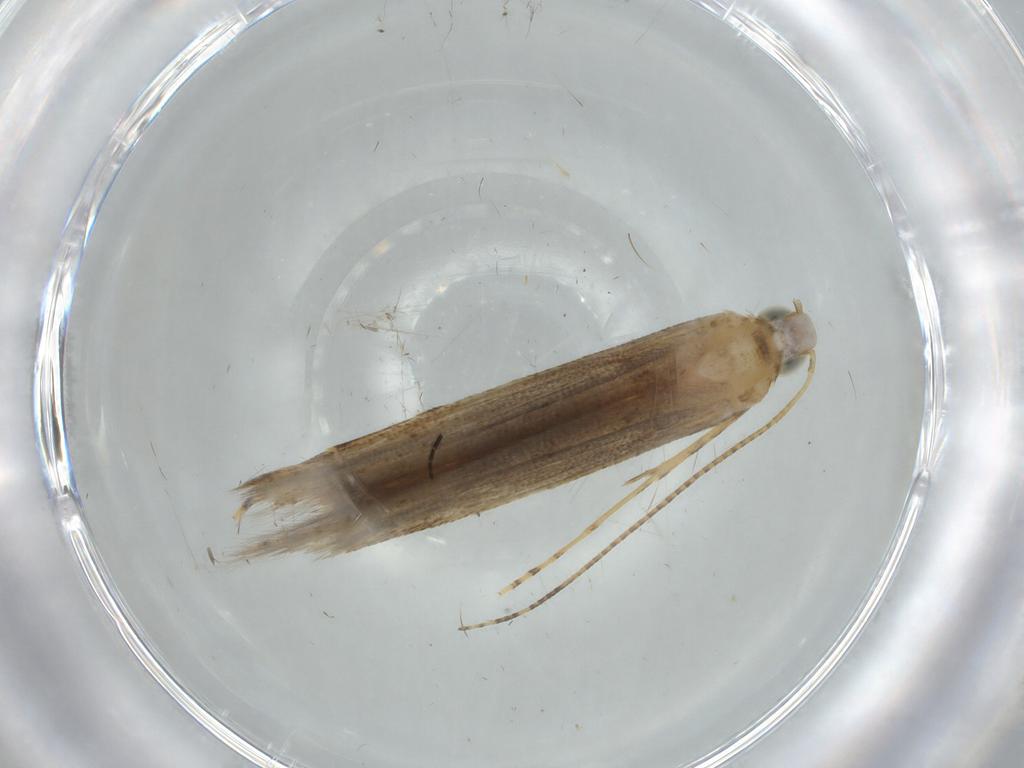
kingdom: Animalia
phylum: Arthropoda
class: Insecta
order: Lepidoptera
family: Batrachedridae
